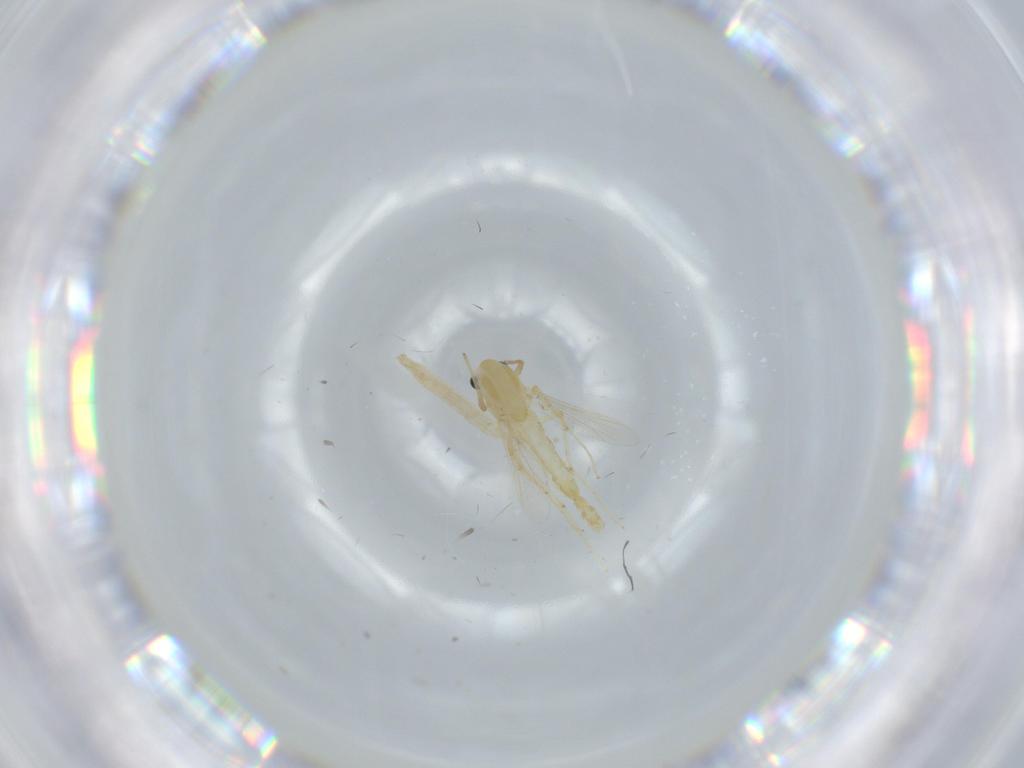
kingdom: Animalia
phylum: Arthropoda
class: Insecta
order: Diptera
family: Chironomidae
